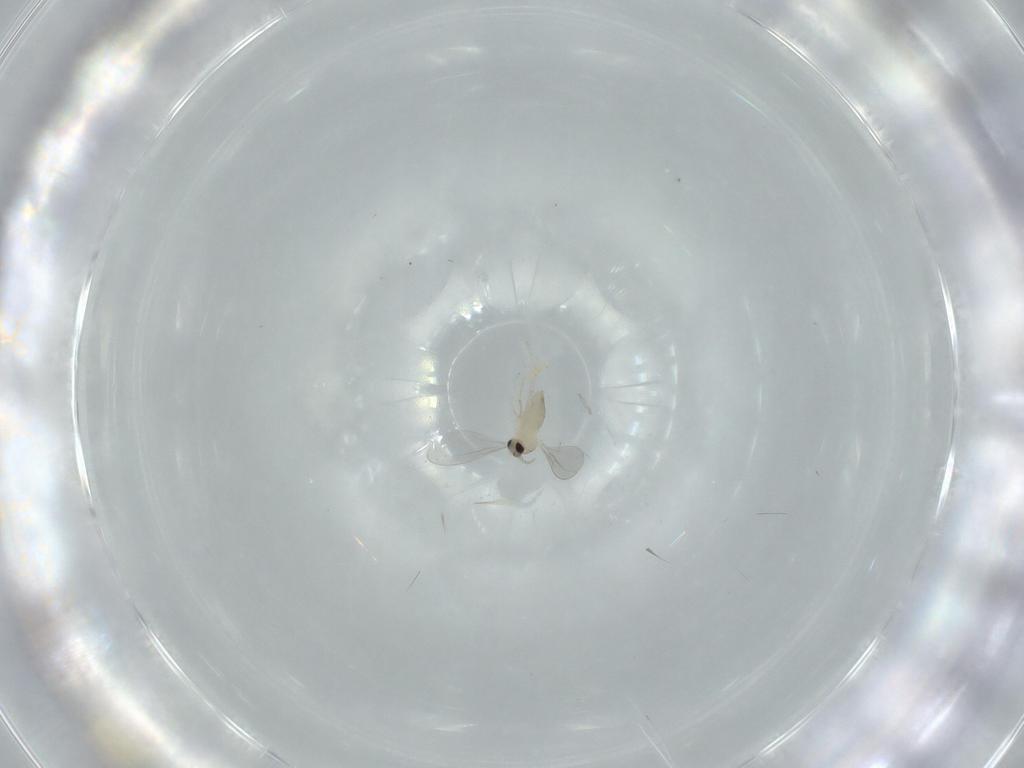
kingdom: Animalia
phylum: Arthropoda
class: Insecta
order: Diptera
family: Cecidomyiidae
